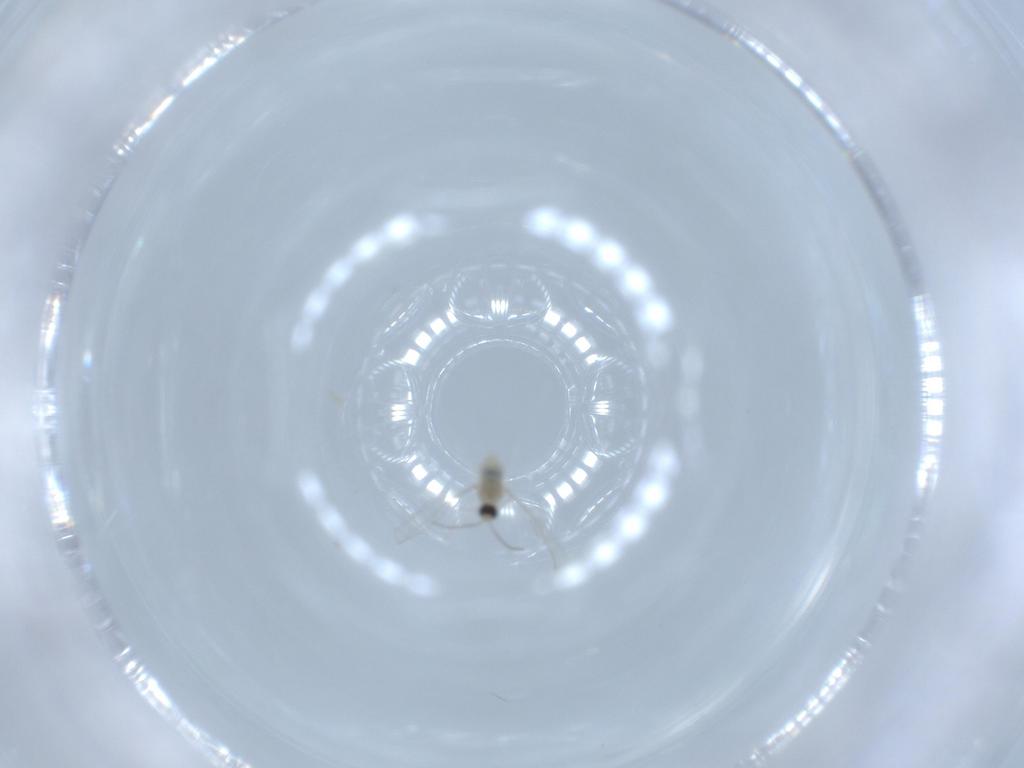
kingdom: Animalia
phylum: Arthropoda
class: Insecta
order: Diptera
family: Cecidomyiidae
